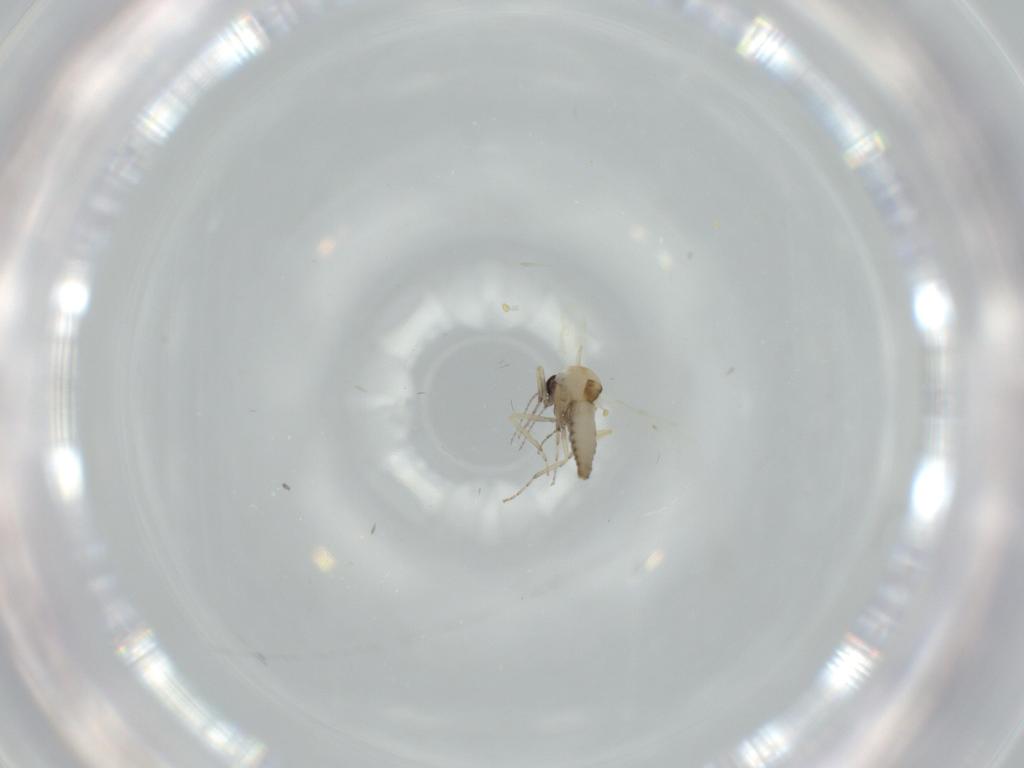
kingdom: Animalia
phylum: Arthropoda
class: Insecta
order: Diptera
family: Ceratopogonidae
